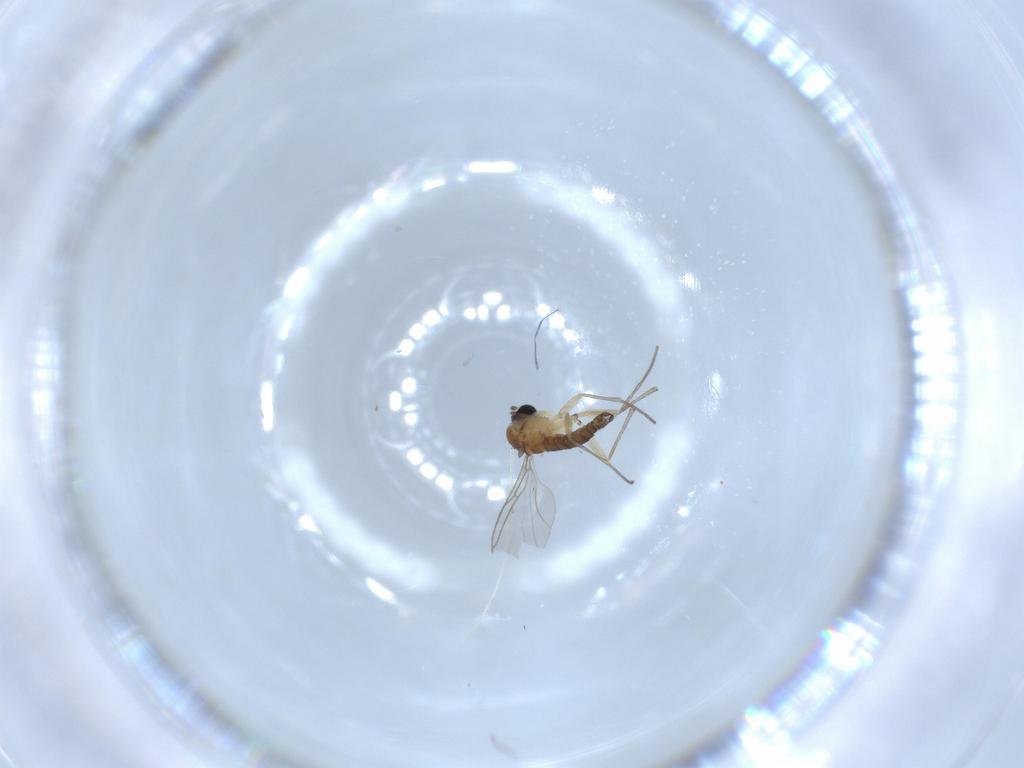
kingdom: Animalia
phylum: Arthropoda
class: Insecta
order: Diptera
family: Sciaridae
